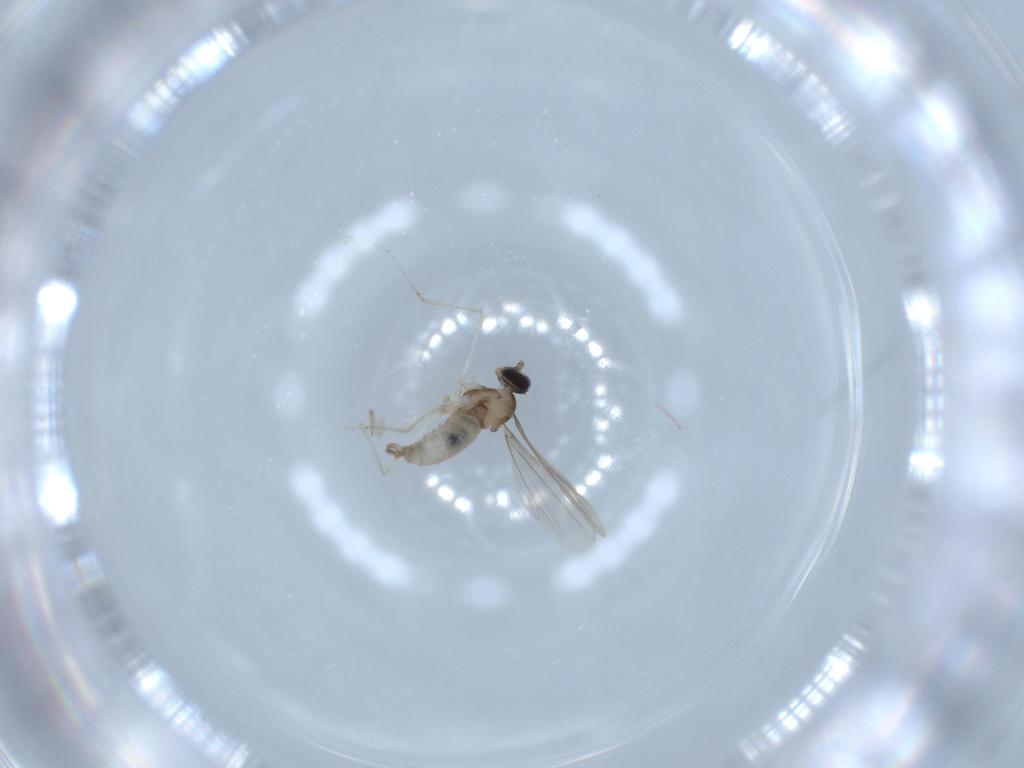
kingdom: Animalia
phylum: Arthropoda
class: Insecta
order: Diptera
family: Cecidomyiidae
